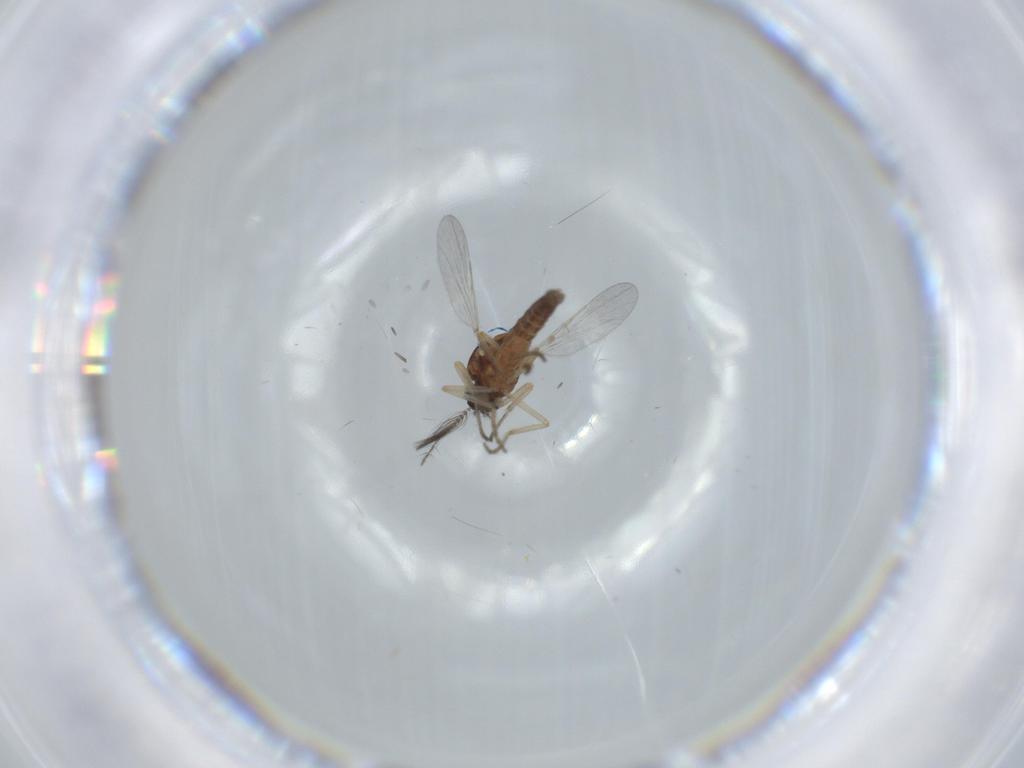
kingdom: Animalia
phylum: Arthropoda
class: Insecta
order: Diptera
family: Ceratopogonidae
